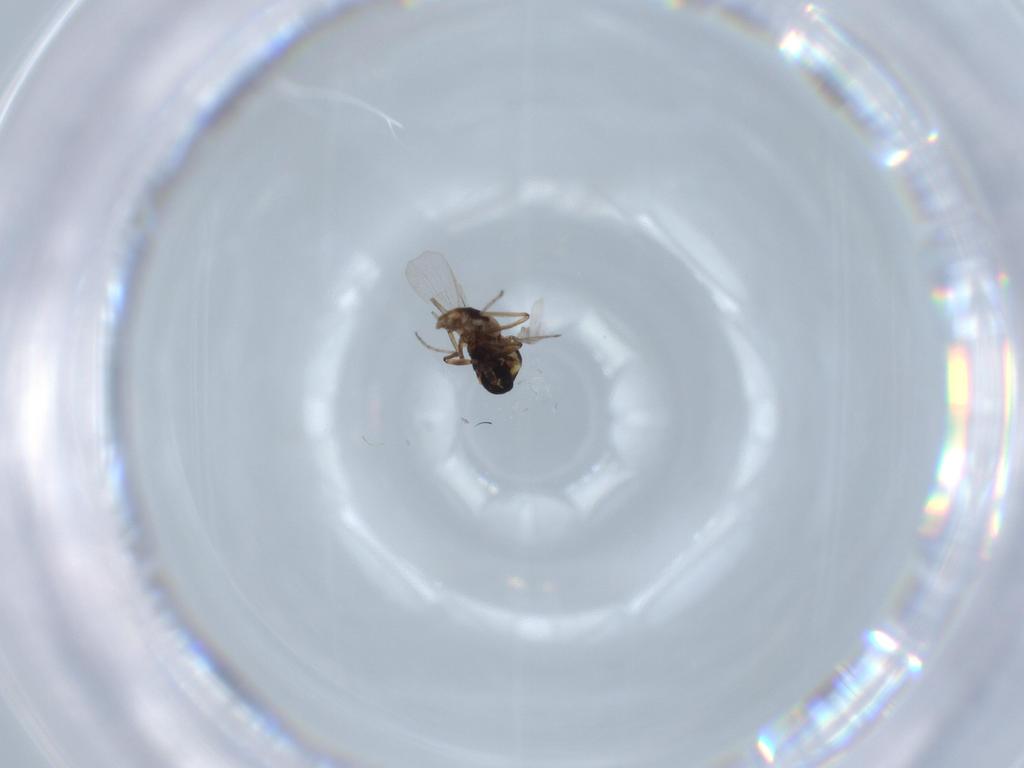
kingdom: Animalia
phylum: Arthropoda
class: Insecta
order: Diptera
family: Ceratopogonidae
